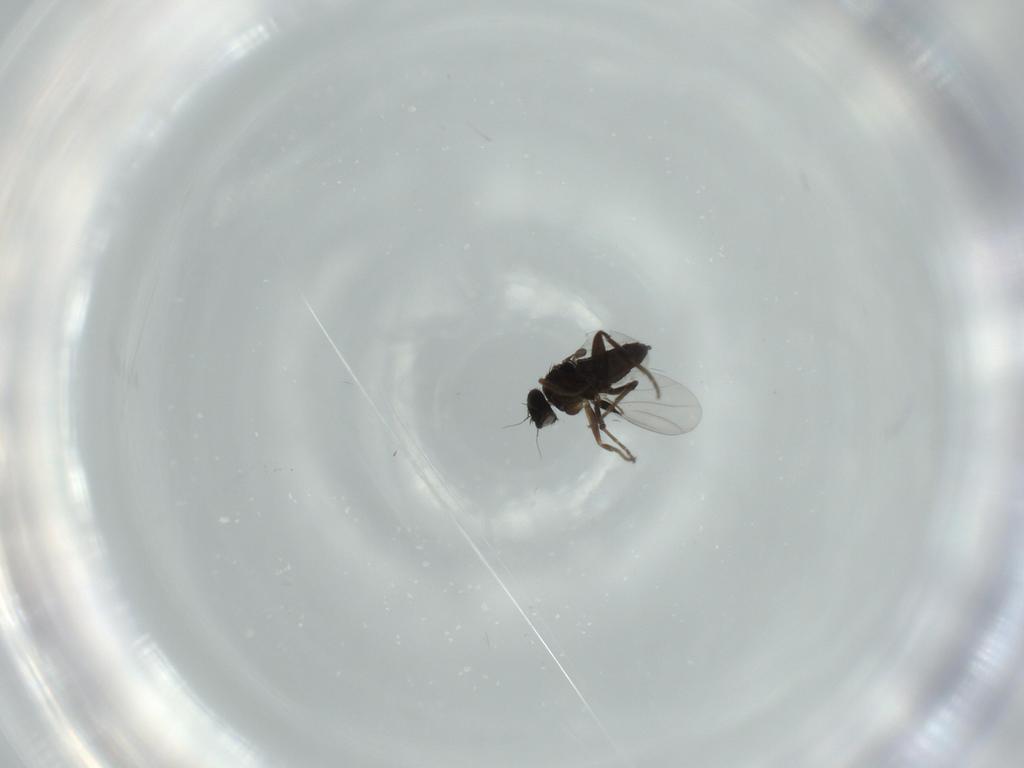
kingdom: Animalia
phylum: Arthropoda
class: Insecta
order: Diptera
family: Phoridae
